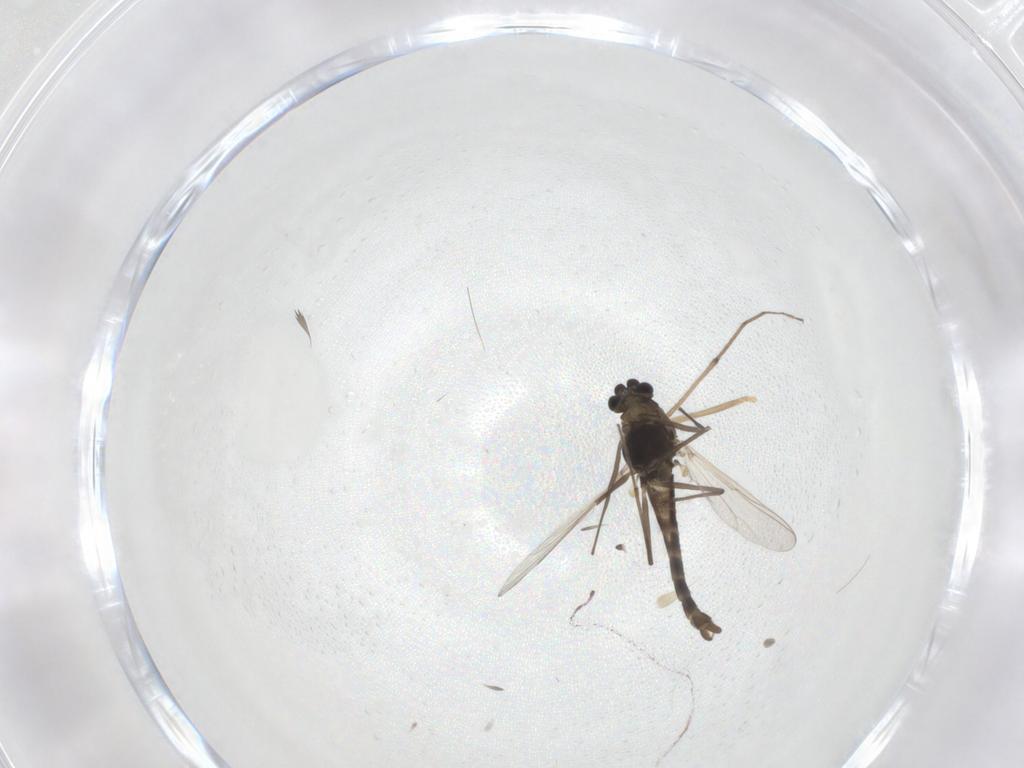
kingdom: Animalia
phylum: Arthropoda
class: Insecta
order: Diptera
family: Chironomidae
